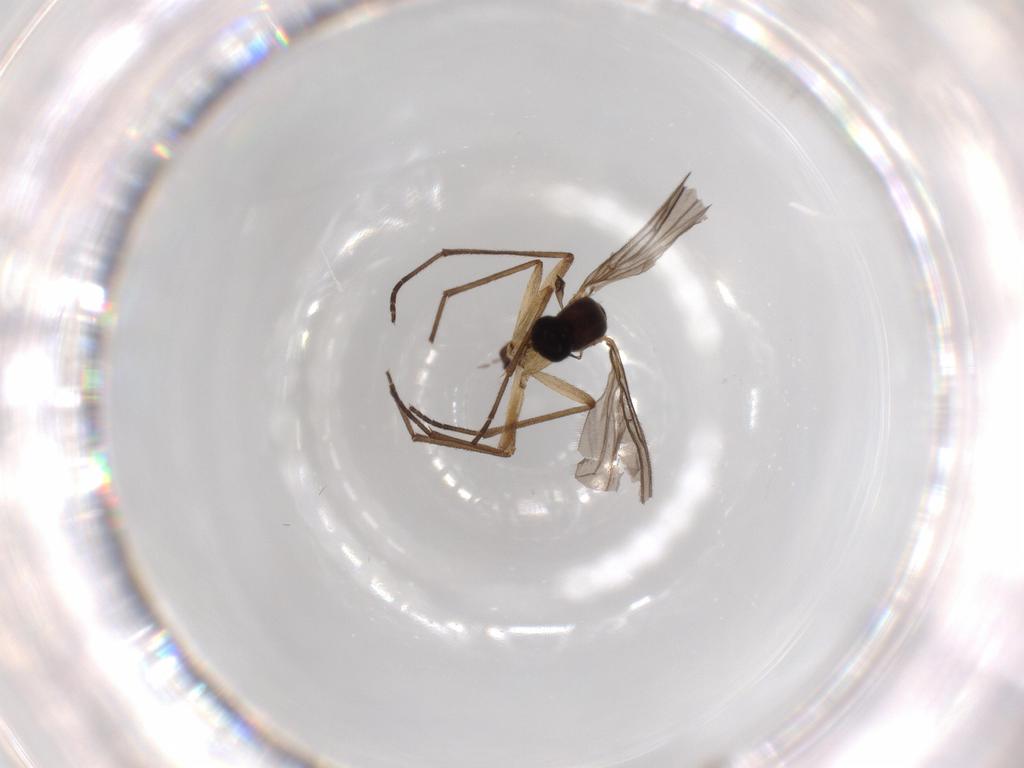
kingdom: Animalia
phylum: Arthropoda
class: Insecta
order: Diptera
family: Sciaridae
